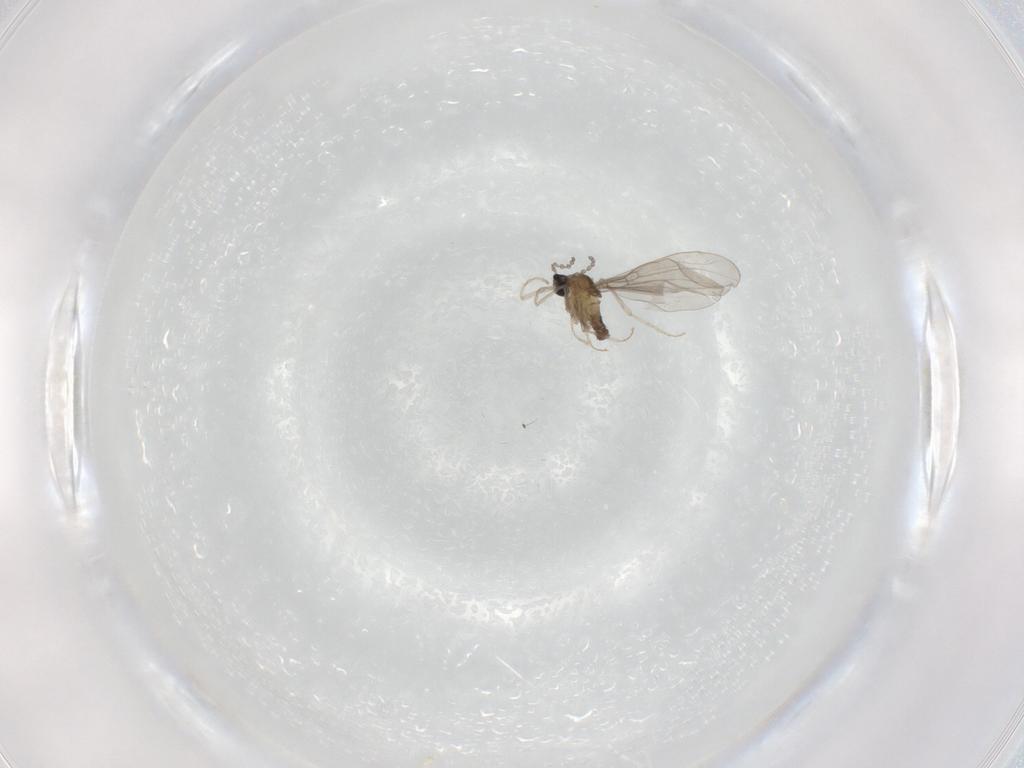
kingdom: Animalia
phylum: Arthropoda
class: Insecta
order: Diptera
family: Cecidomyiidae
